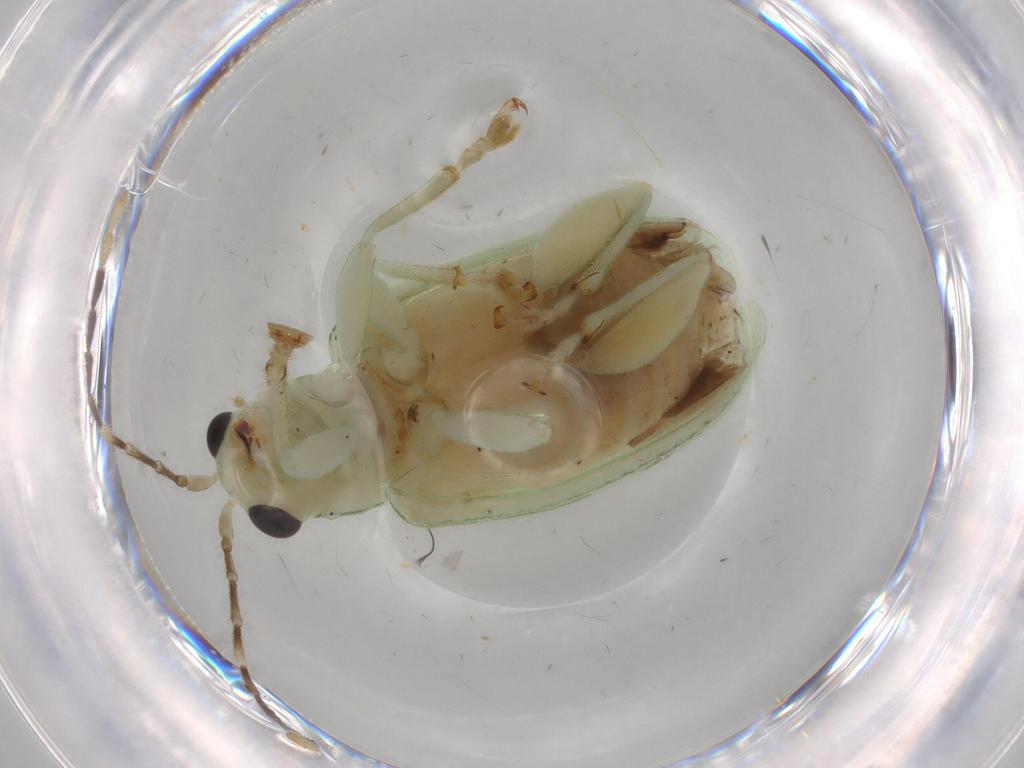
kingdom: Animalia
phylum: Arthropoda
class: Insecta
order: Coleoptera
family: Chrysomelidae
